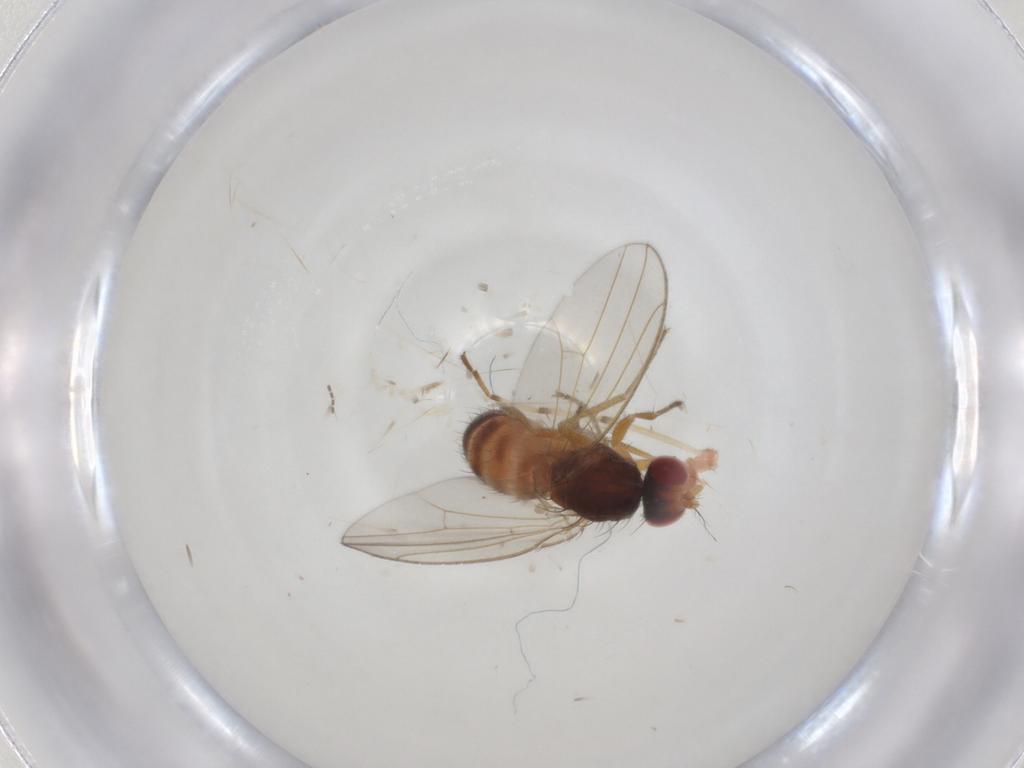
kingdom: Animalia
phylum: Arthropoda
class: Insecta
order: Diptera
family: Drosophilidae
